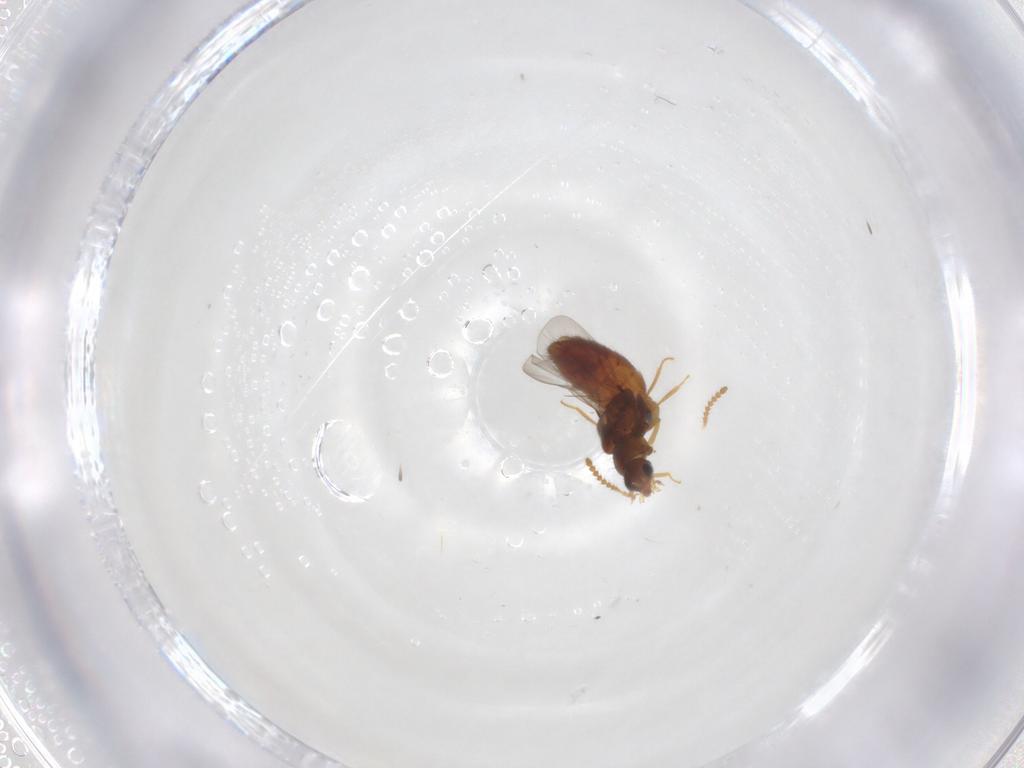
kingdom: Animalia
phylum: Arthropoda
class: Insecta
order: Coleoptera
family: Staphylinidae
